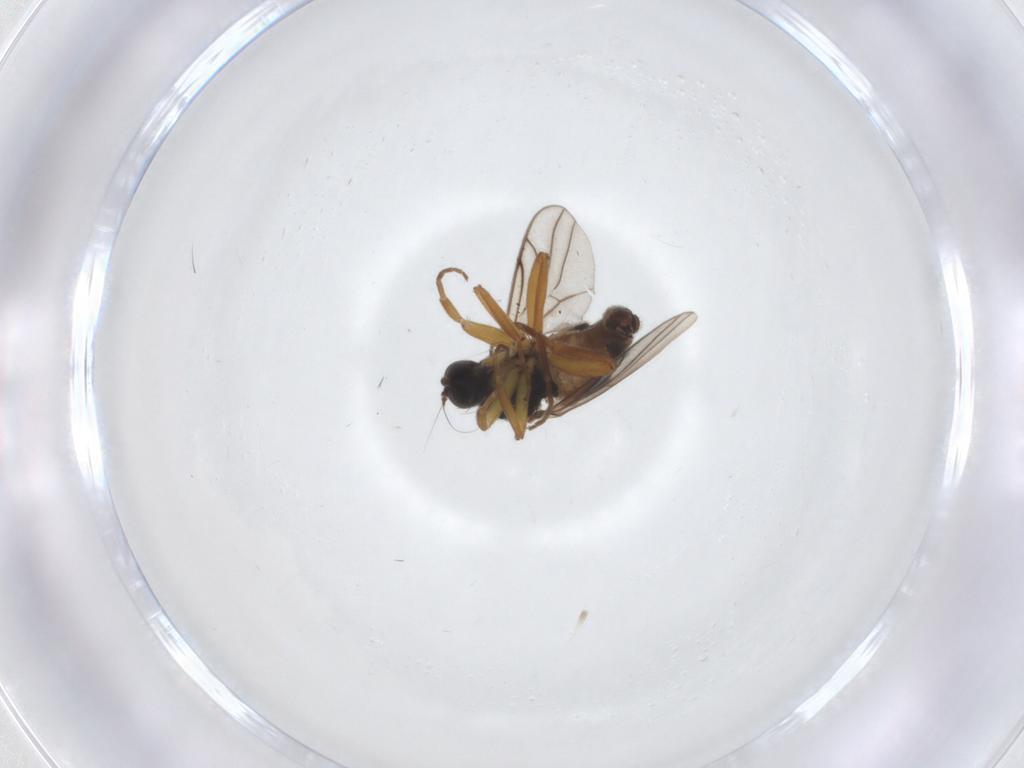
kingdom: Animalia
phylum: Arthropoda
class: Insecta
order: Diptera
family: Hybotidae
